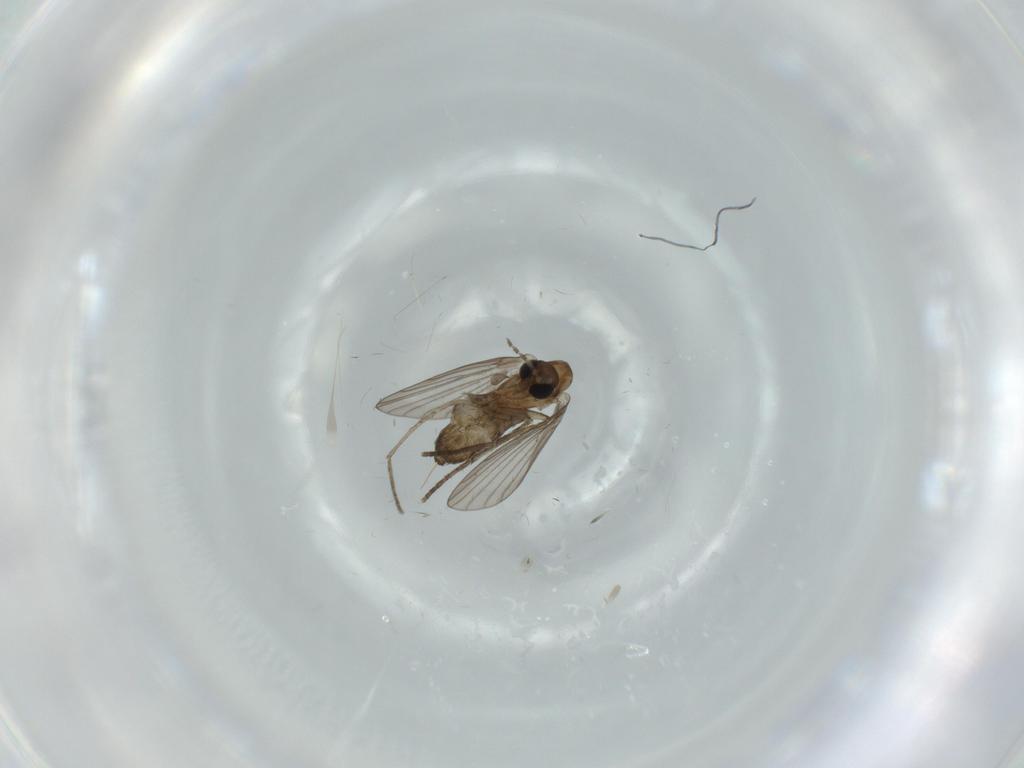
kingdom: Animalia
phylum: Arthropoda
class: Insecta
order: Diptera
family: Psychodidae
